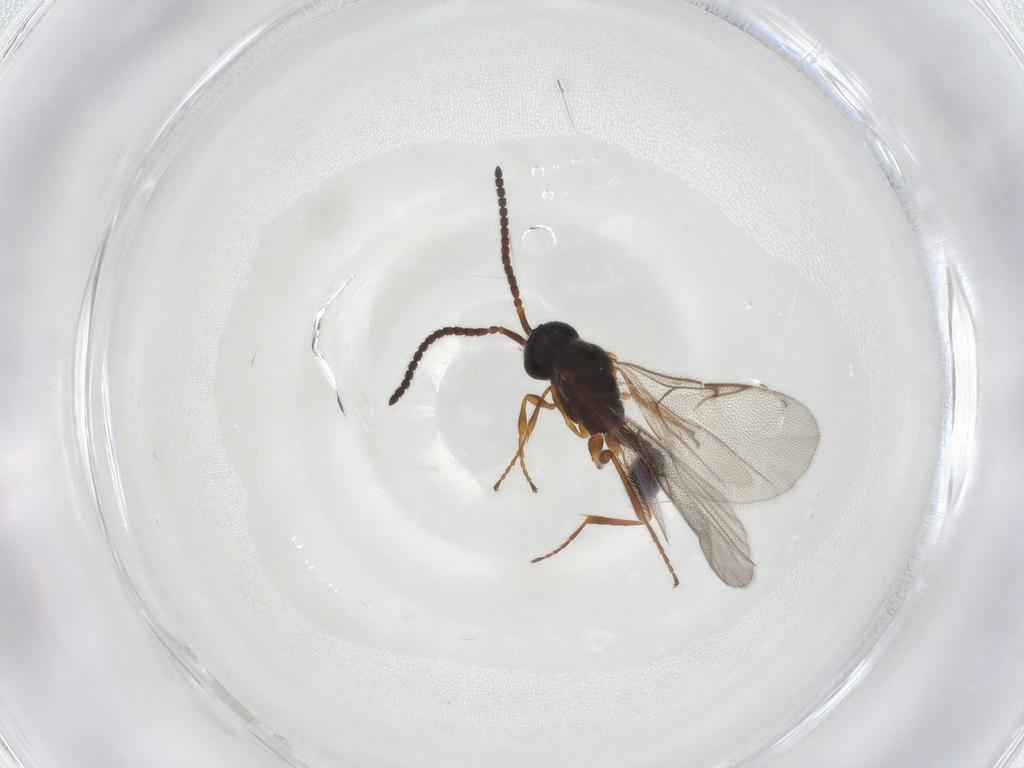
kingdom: Animalia
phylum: Arthropoda
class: Insecta
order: Hymenoptera
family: Diapriidae
